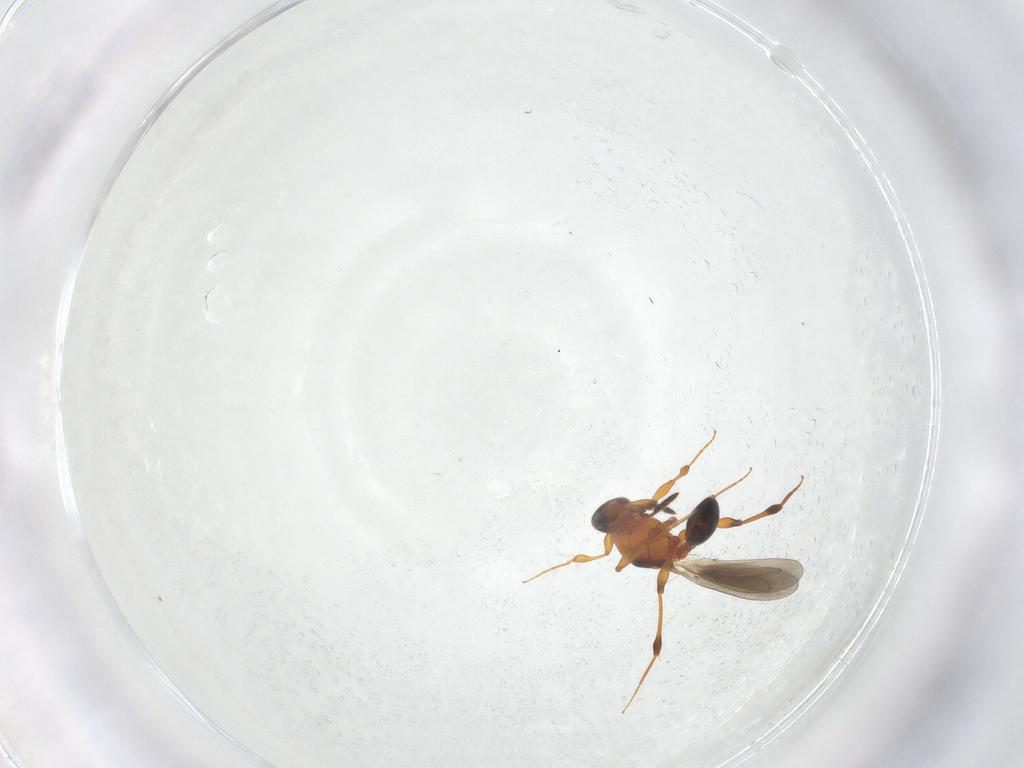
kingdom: Animalia
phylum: Arthropoda
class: Insecta
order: Hymenoptera
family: Platygastridae
